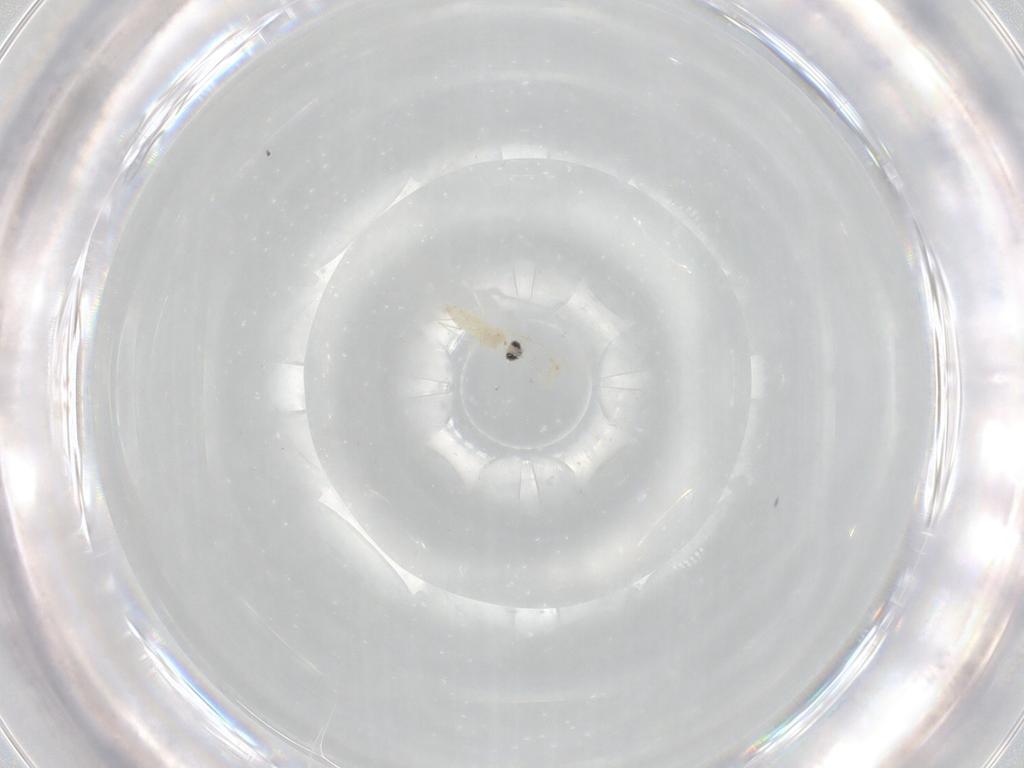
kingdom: Animalia
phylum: Arthropoda
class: Insecta
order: Diptera
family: Cecidomyiidae
